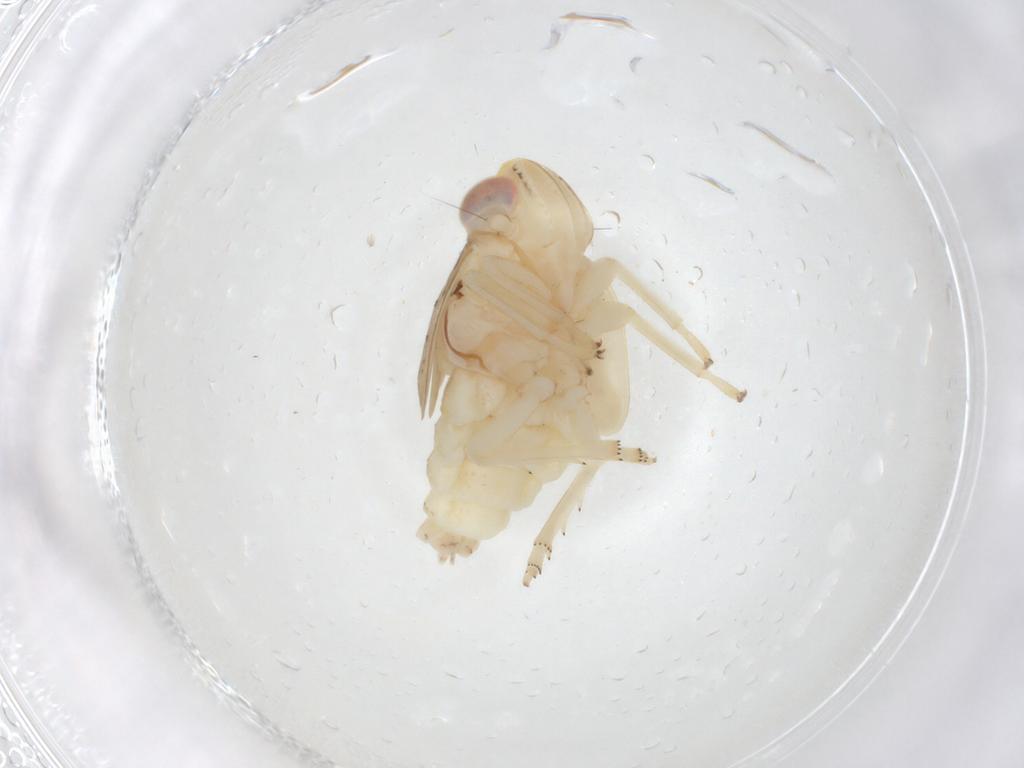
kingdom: Animalia
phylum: Arthropoda
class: Insecta
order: Hemiptera
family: Nogodinidae
